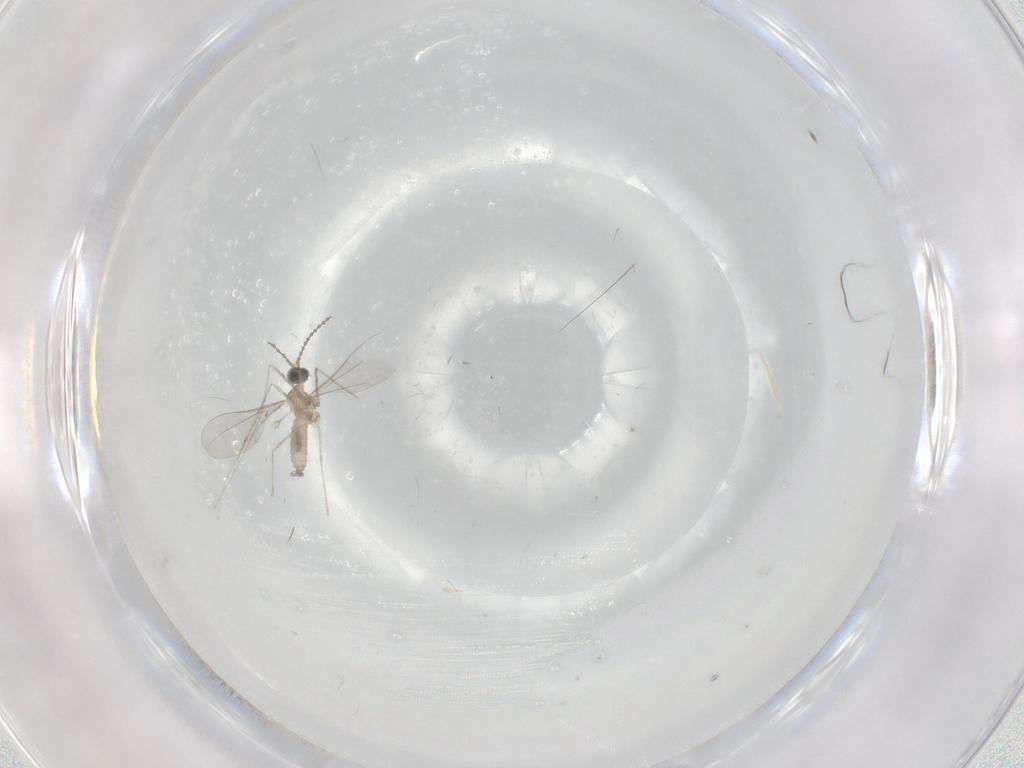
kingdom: Animalia
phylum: Arthropoda
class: Insecta
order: Diptera
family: Cecidomyiidae
